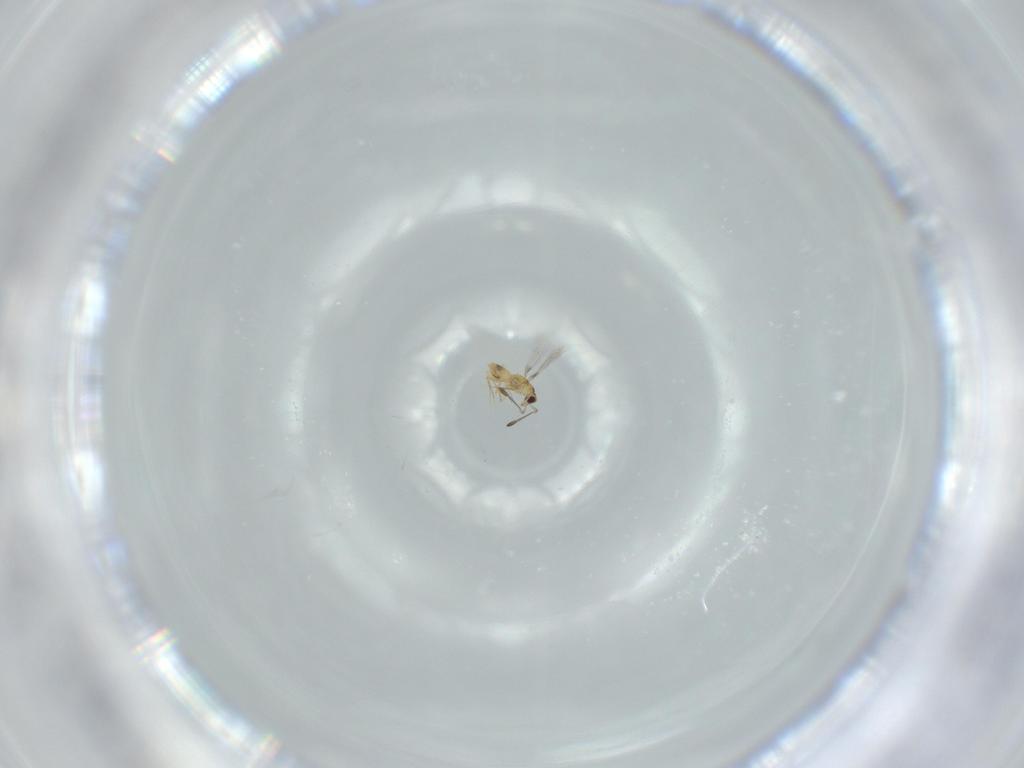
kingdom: Animalia
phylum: Arthropoda
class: Insecta
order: Hymenoptera
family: Mymaridae
